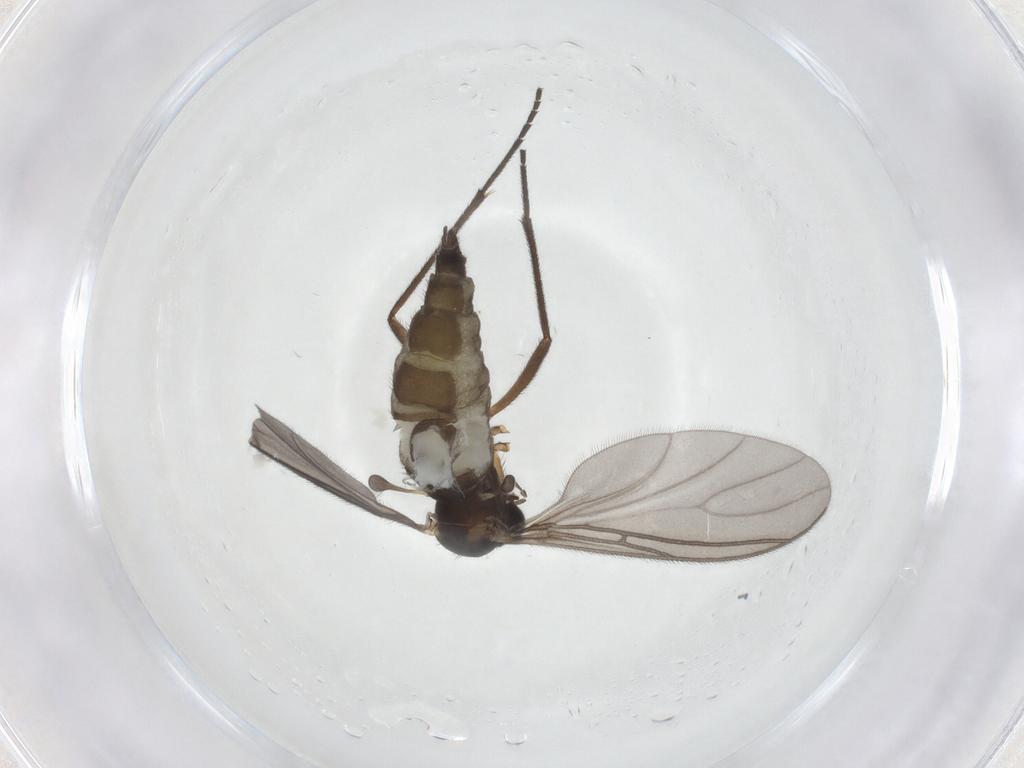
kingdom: Animalia
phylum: Arthropoda
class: Insecta
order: Diptera
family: Sciaridae
